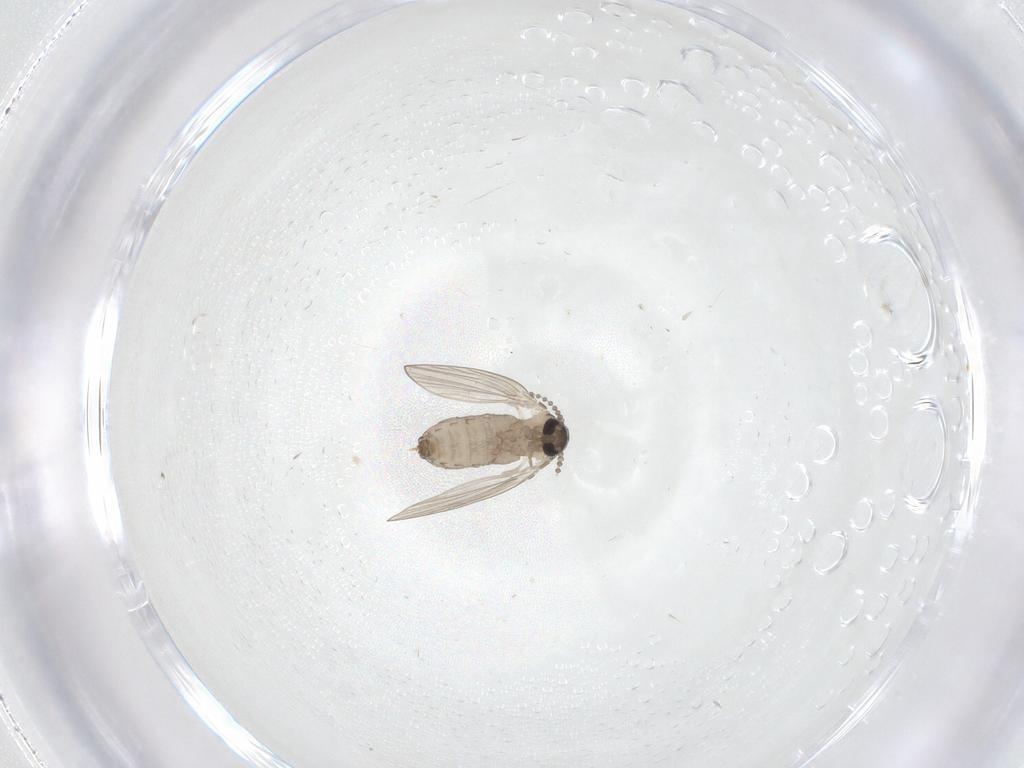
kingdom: Animalia
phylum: Arthropoda
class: Insecta
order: Diptera
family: Psychodidae
